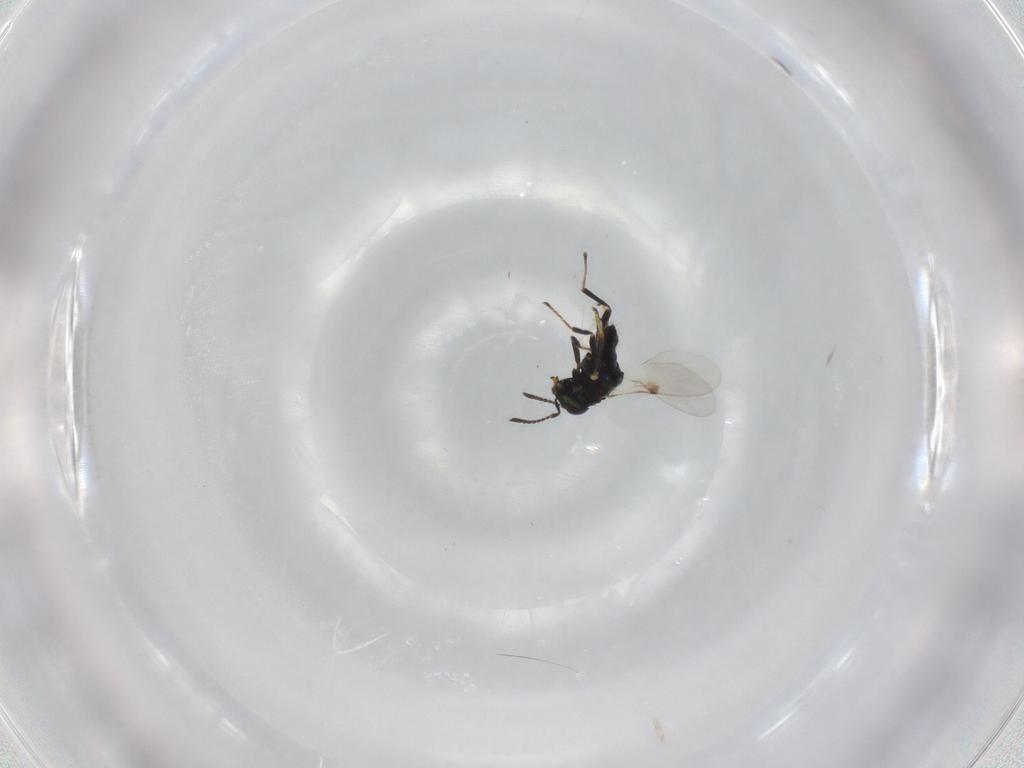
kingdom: Animalia
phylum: Arthropoda
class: Insecta
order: Hymenoptera
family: Encyrtidae
